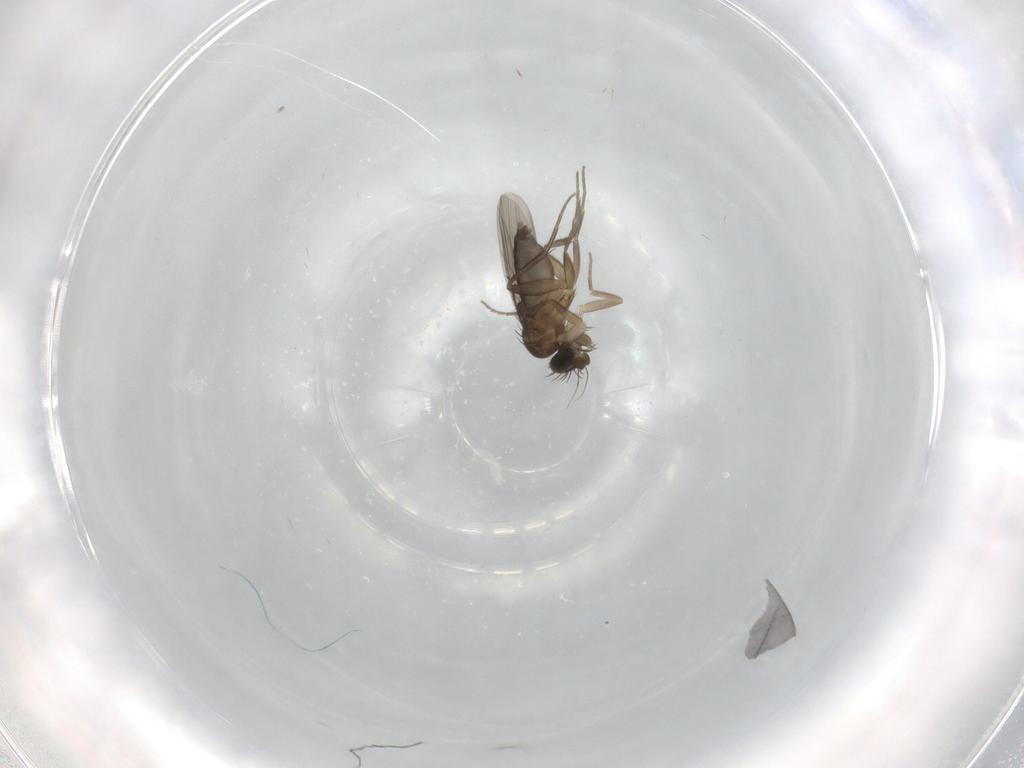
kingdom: Animalia
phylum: Arthropoda
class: Insecta
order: Diptera
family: Phoridae
